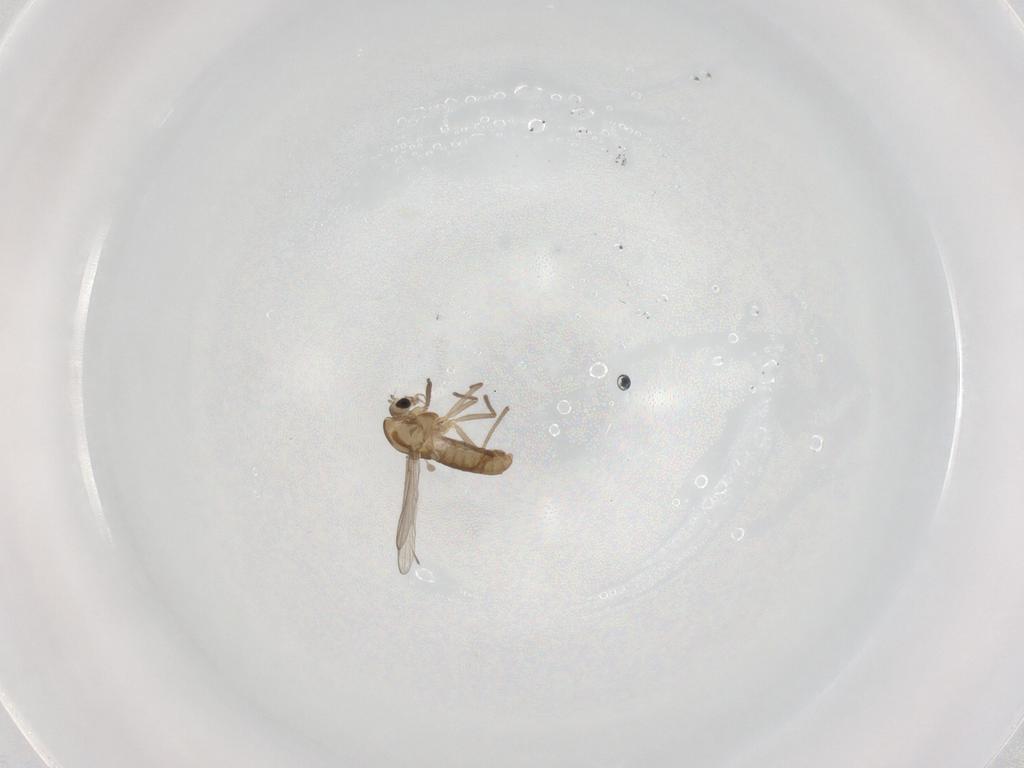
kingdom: Animalia
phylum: Arthropoda
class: Insecta
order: Diptera
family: Chironomidae
